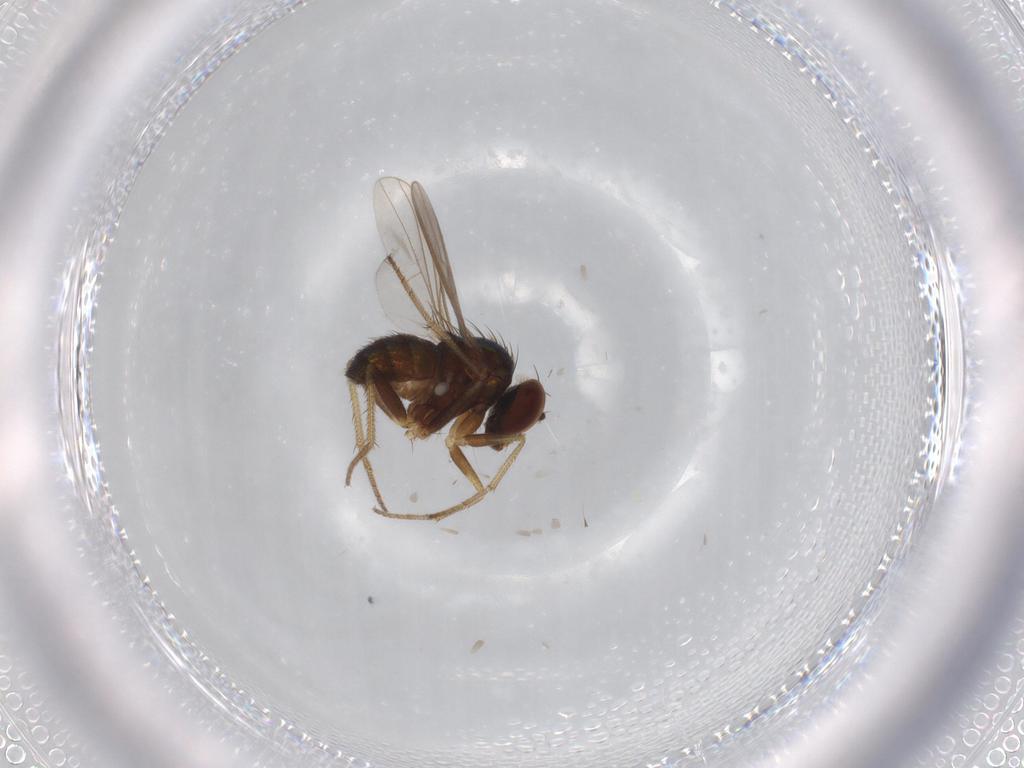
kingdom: Animalia
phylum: Arthropoda
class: Insecta
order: Diptera
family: Dolichopodidae
